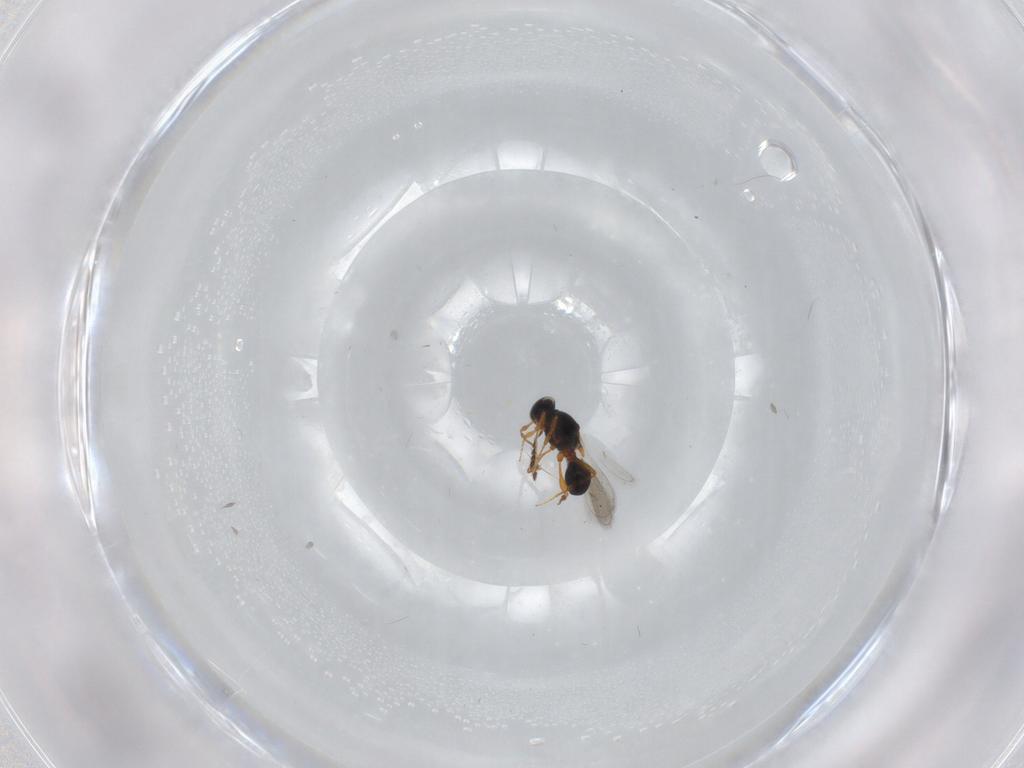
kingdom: Animalia
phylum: Arthropoda
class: Insecta
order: Hymenoptera
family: Platygastridae
